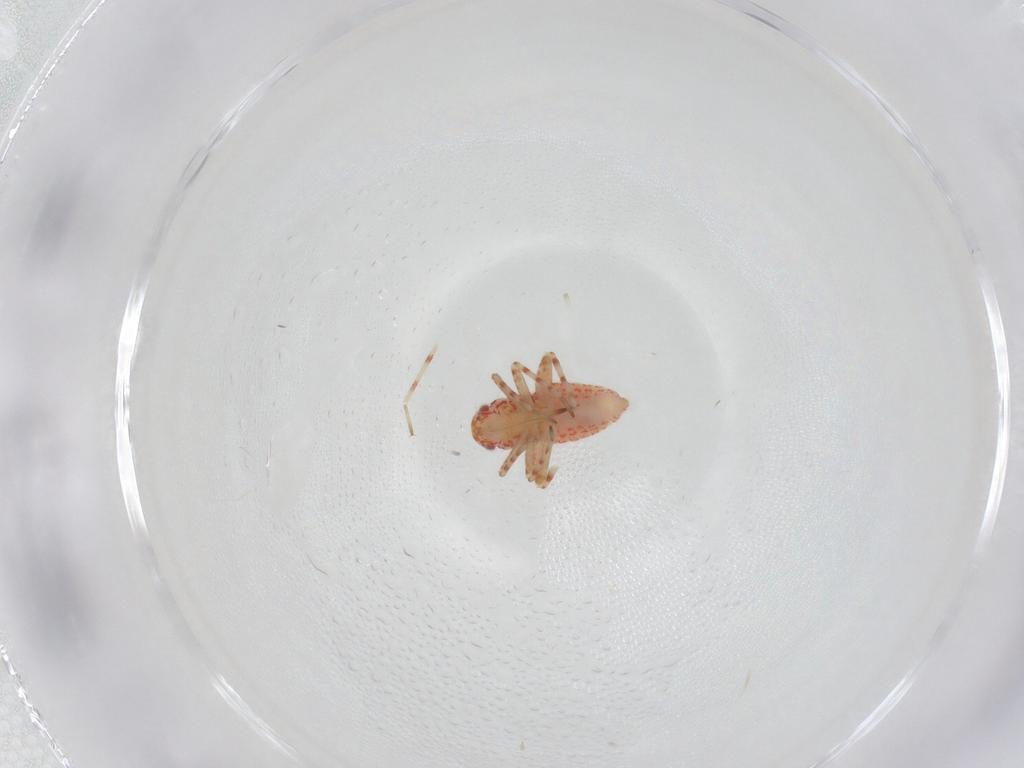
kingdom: Animalia
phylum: Arthropoda
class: Insecta
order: Hemiptera
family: Miridae
